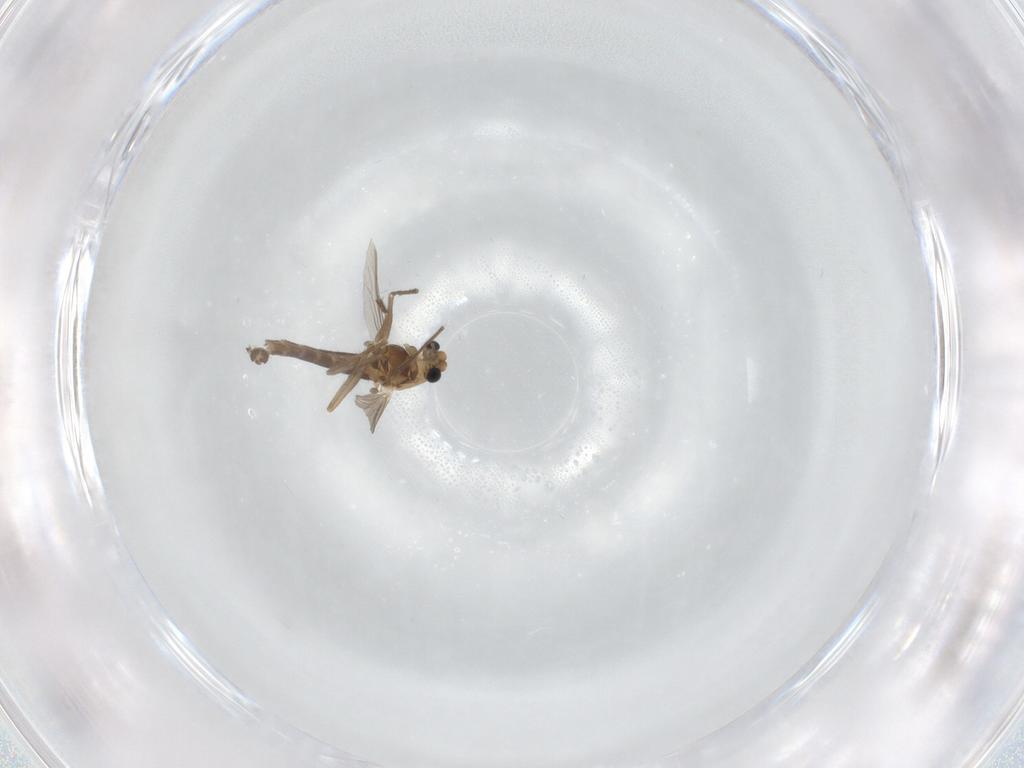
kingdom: Animalia
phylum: Arthropoda
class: Insecta
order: Diptera
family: Chironomidae
